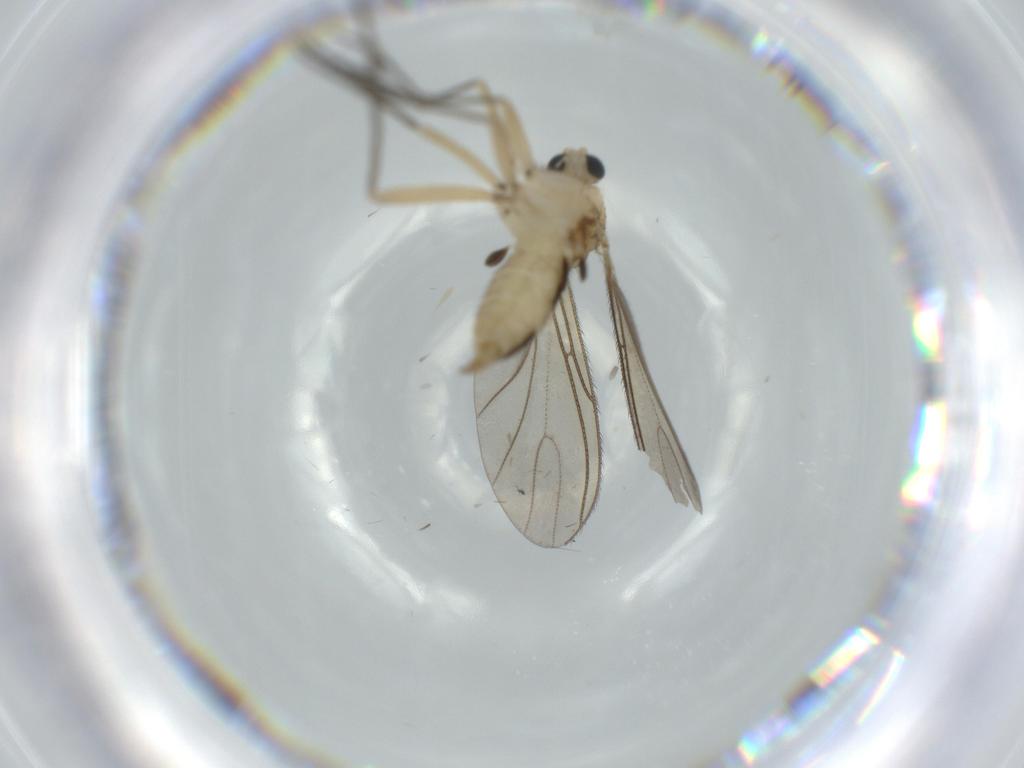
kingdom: Animalia
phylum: Arthropoda
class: Insecta
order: Diptera
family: Sciaridae
